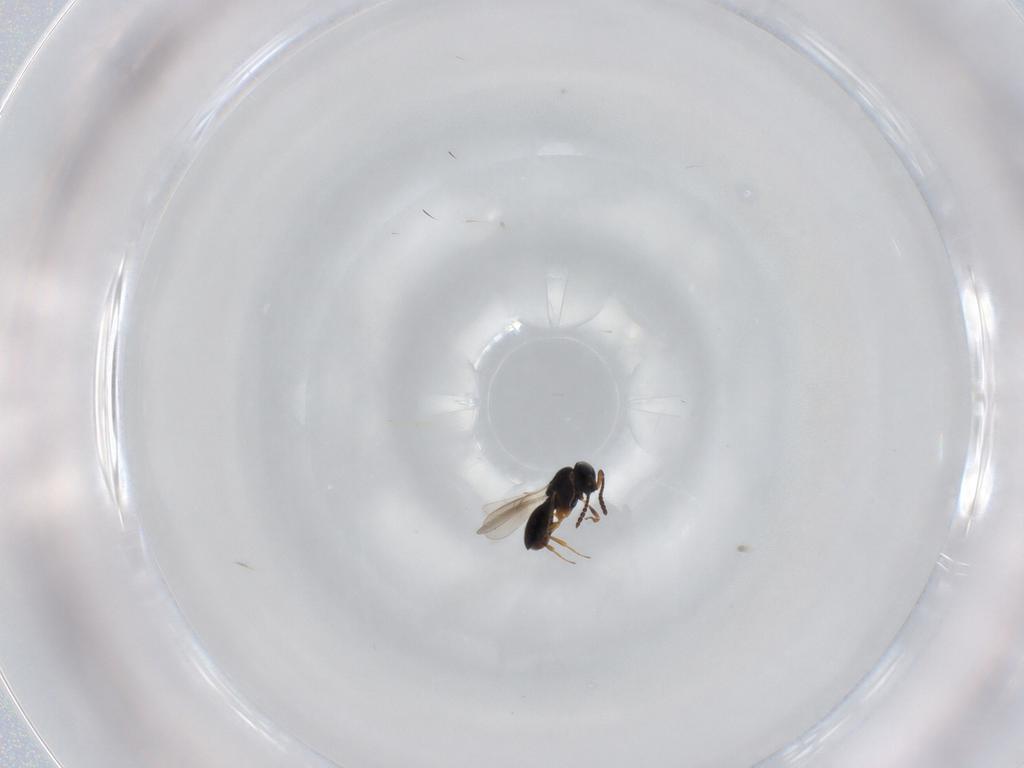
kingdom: Animalia
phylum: Arthropoda
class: Insecta
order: Hymenoptera
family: Scelionidae
